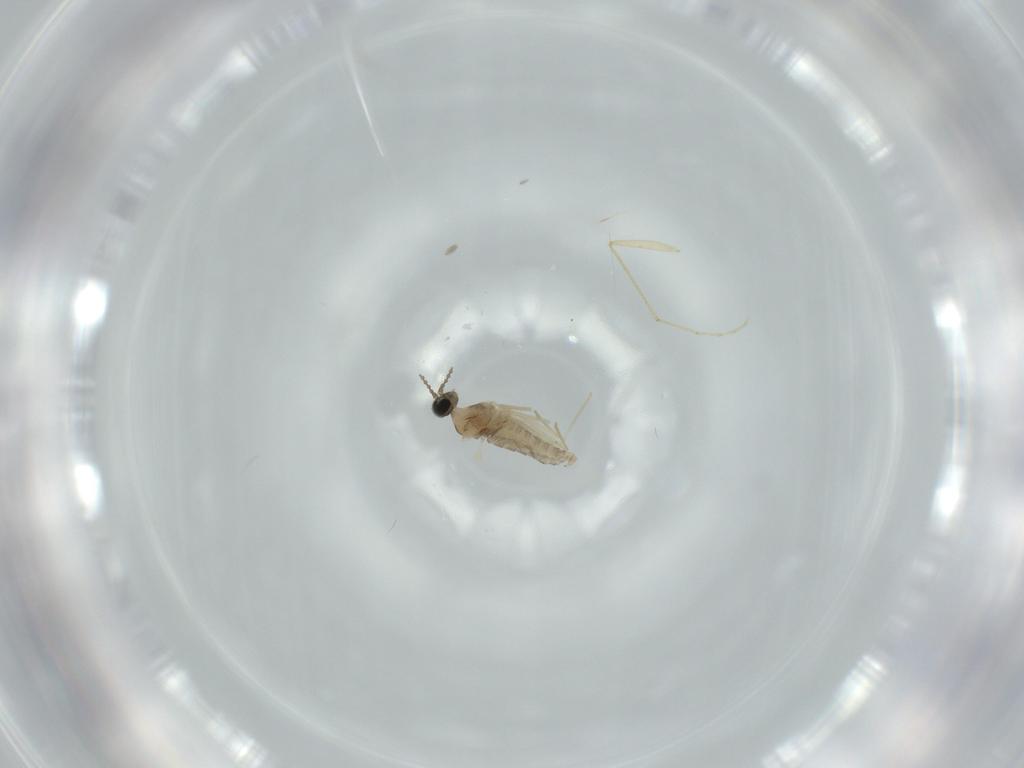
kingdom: Animalia
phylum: Arthropoda
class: Insecta
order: Diptera
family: Cecidomyiidae
